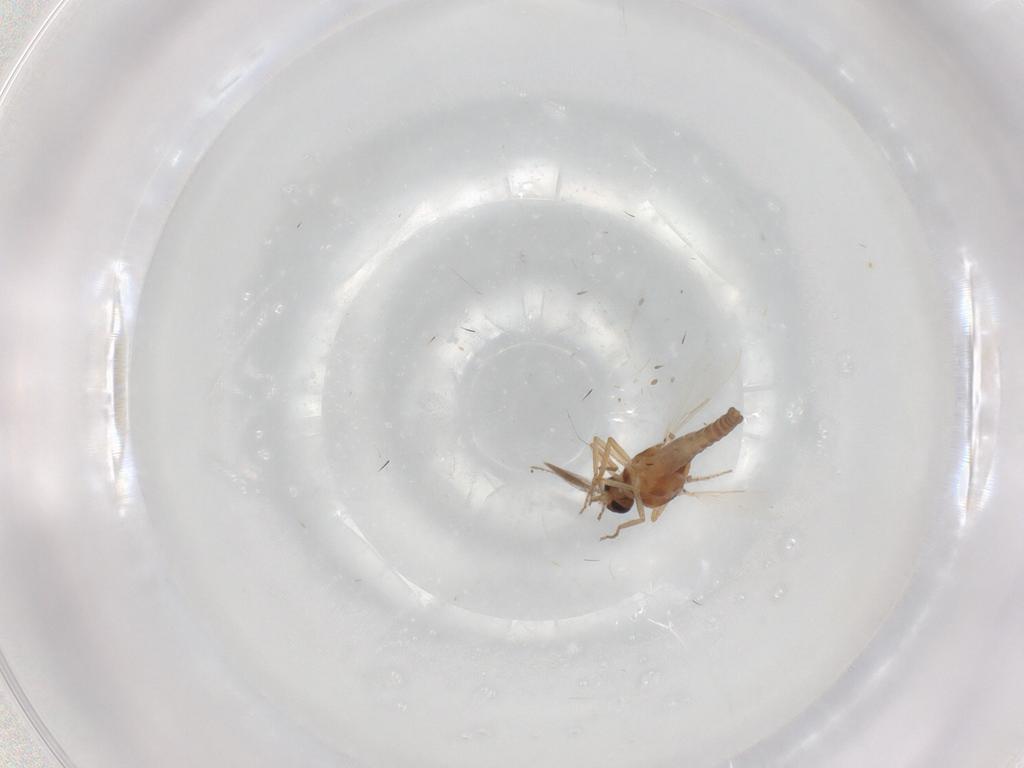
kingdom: Animalia
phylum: Arthropoda
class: Insecta
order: Diptera
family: Ceratopogonidae
